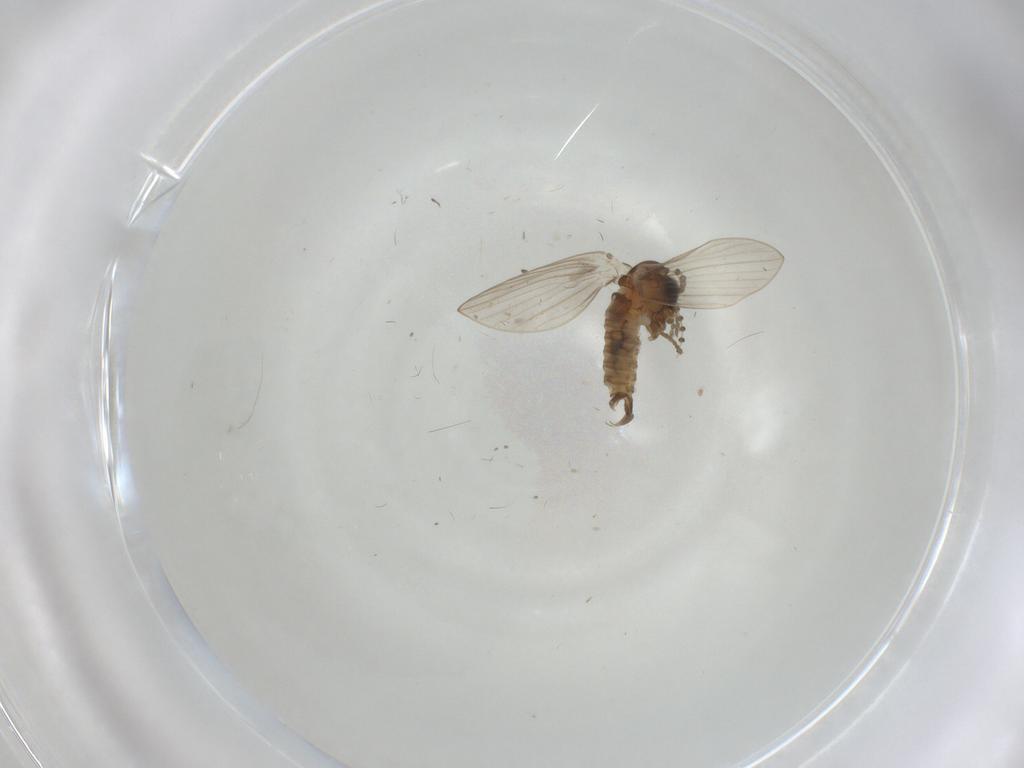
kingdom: Animalia
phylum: Arthropoda
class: Insecta
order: Diptera
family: Psychodidae
